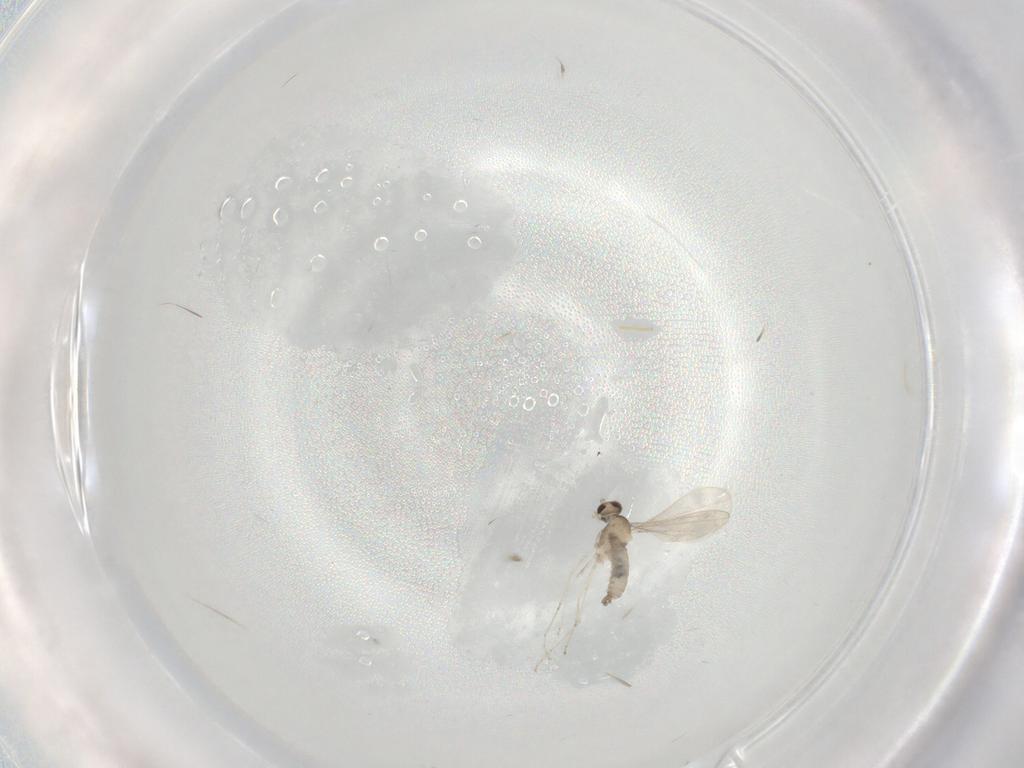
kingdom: Animalia
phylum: Arthropoda
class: Insecta
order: Diptera
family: Cecidomyiidae
